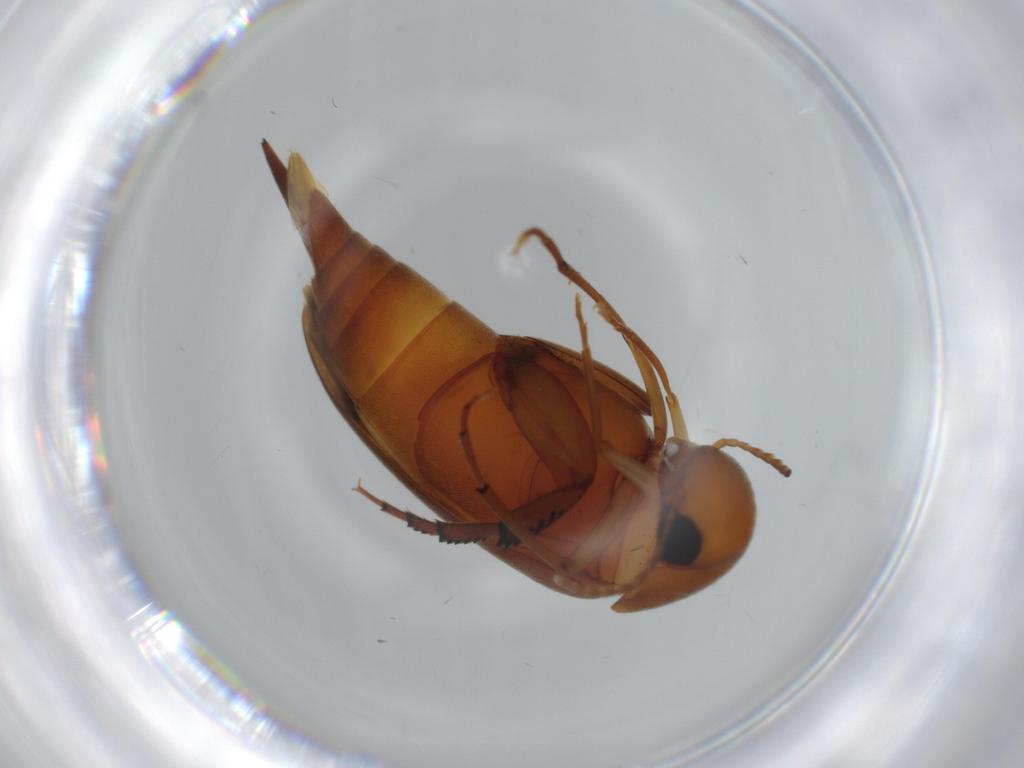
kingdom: Animalia
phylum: Arthropoda
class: Insecta
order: Coleoptera
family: Mordellidae
